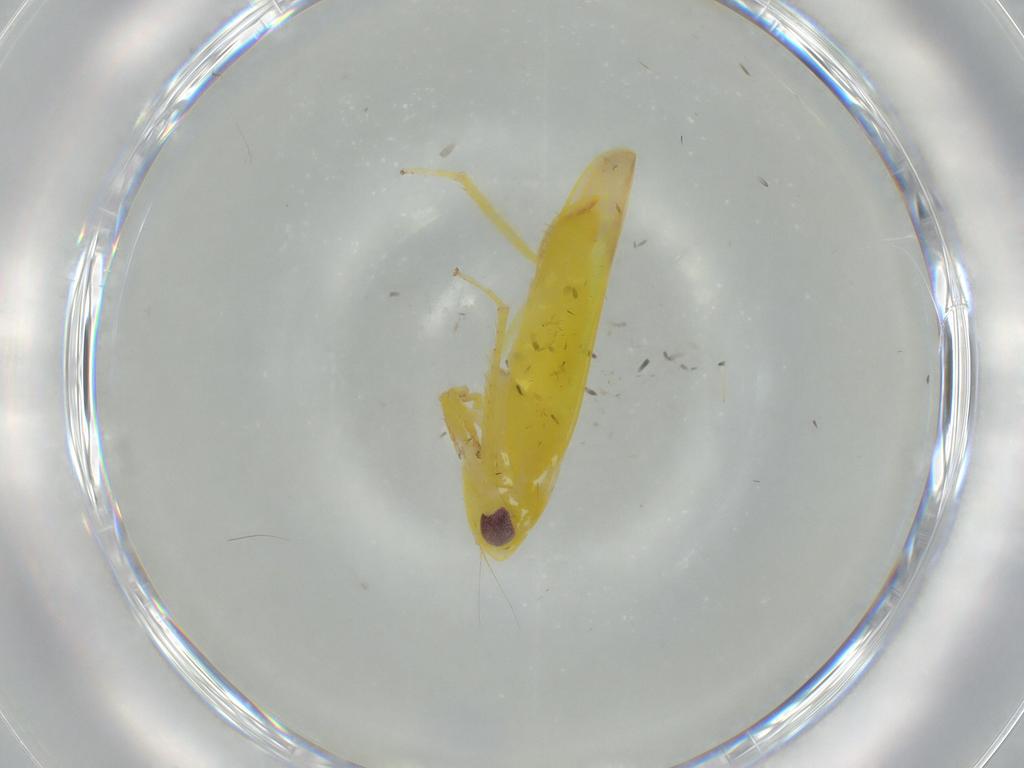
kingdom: Animalia
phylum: Arthropoda
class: Insecta
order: Hemiptera
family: Cicadellidae
